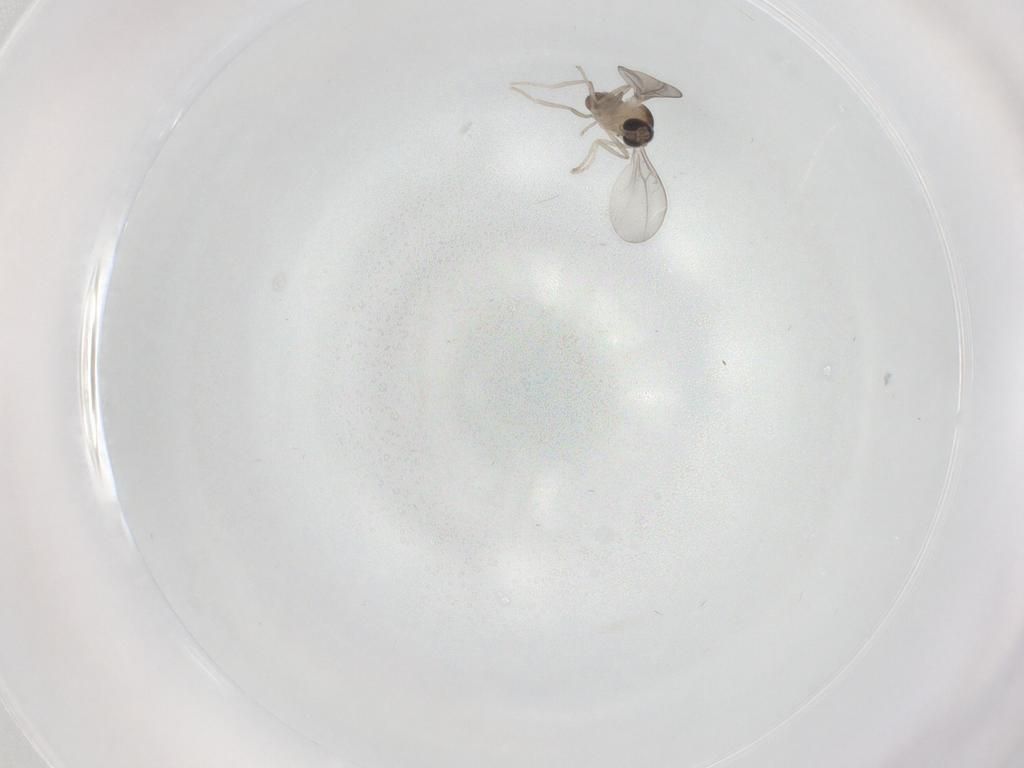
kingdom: Animalia
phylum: Arthropoda
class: Insecta
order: Diptera
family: Cecidomyiidae
